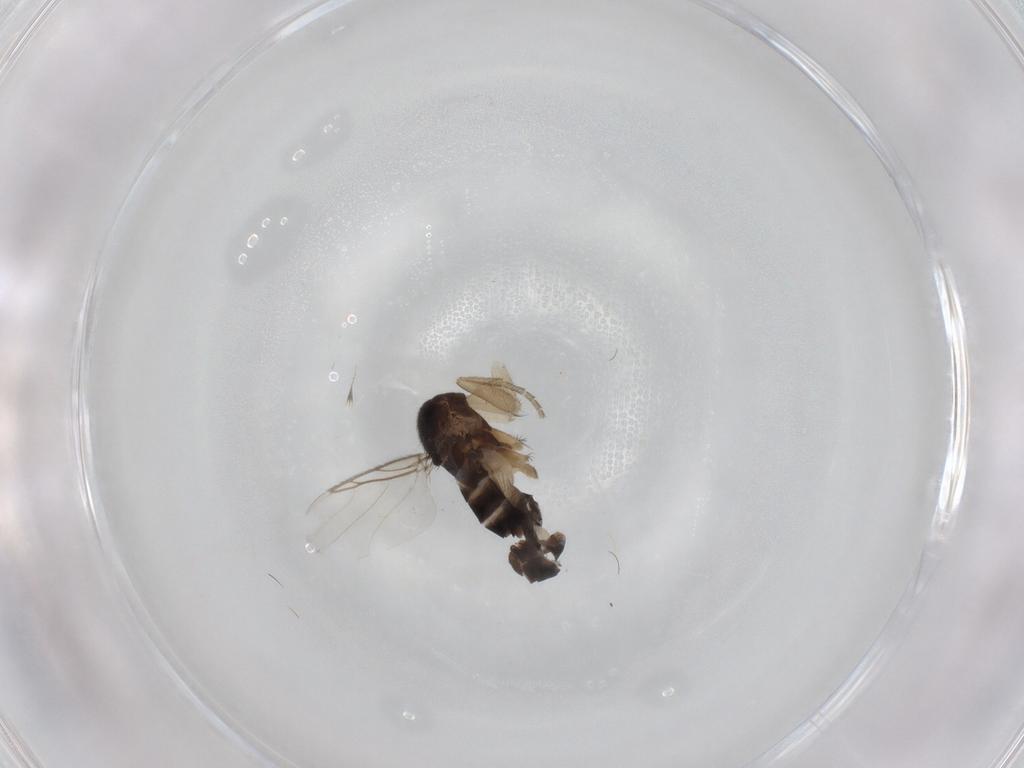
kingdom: Animalia
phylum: Arthropoda
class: Insecta
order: Diptera
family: Phoridae
